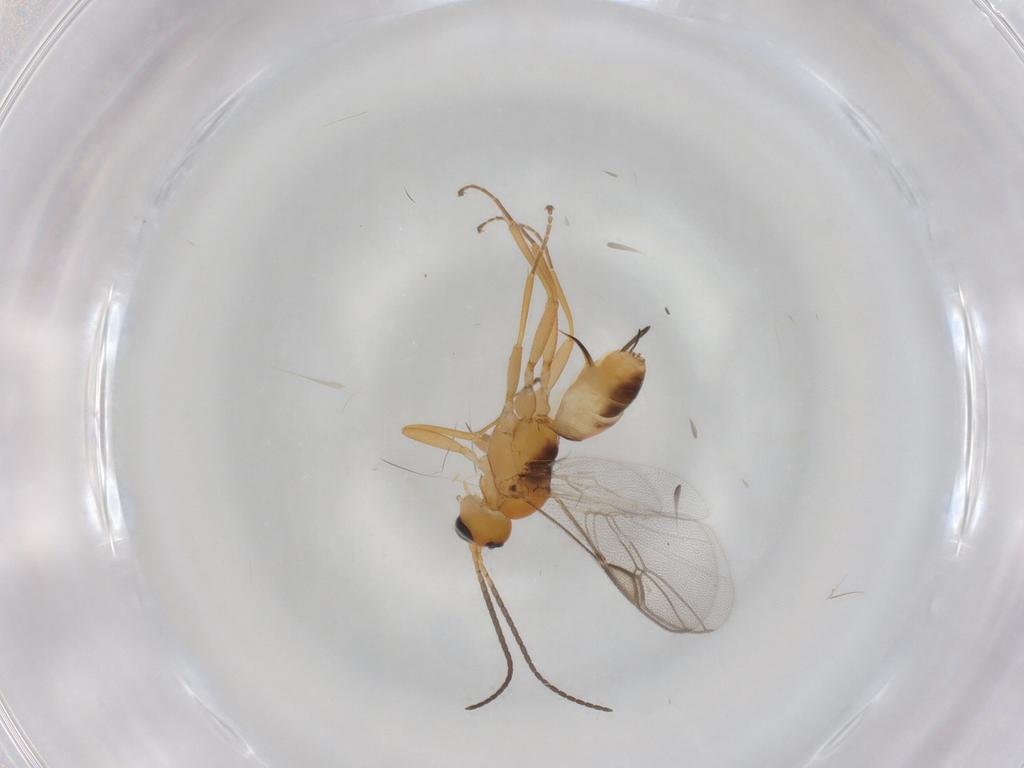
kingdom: Animalia
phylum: Arthropoda
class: Insecta
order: Hymenoptera
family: Braconidae
